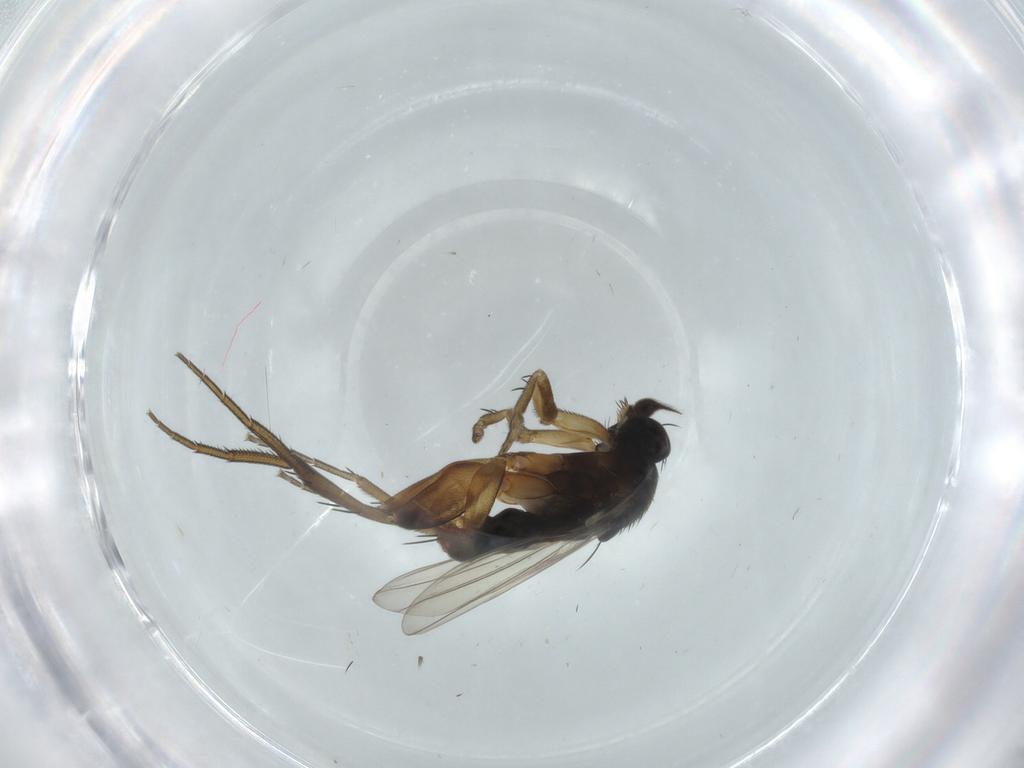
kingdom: Animalia
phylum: Arthropoda
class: Insecta
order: Diptera
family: Phoridae
